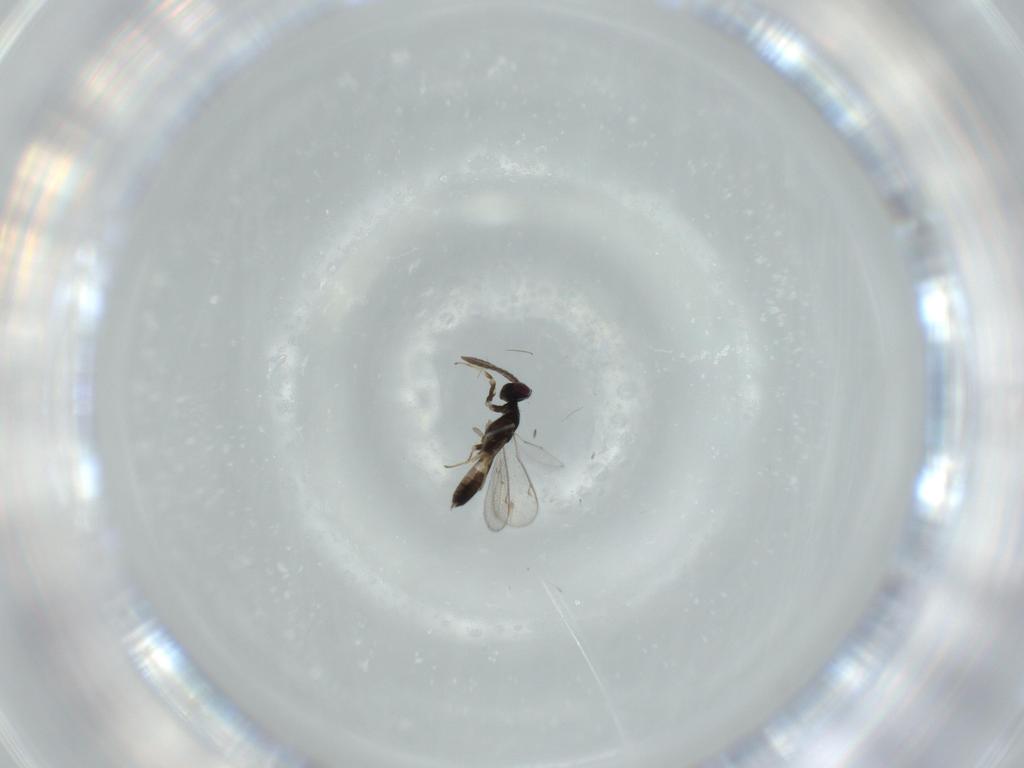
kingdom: Animalia
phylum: Arthropoda
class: Insecta
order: Hymenoptera
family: Eupelmidae
